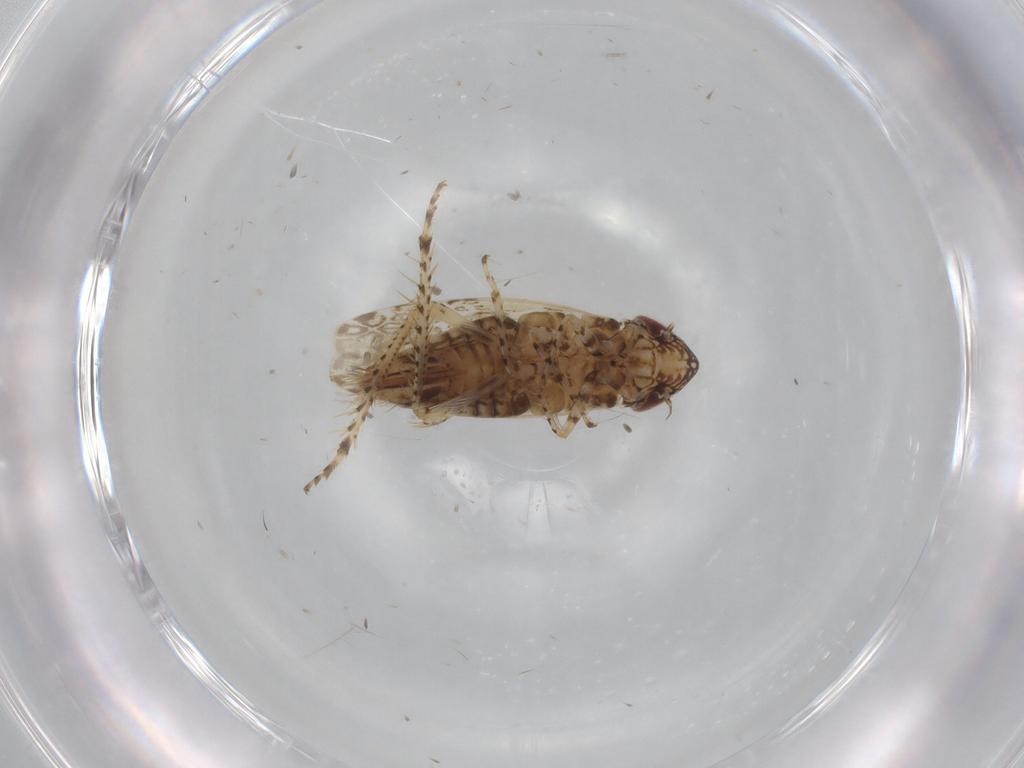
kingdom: Animalia
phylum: Arthropoda
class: Insecta
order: Hemiptera
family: Cicadellidae
